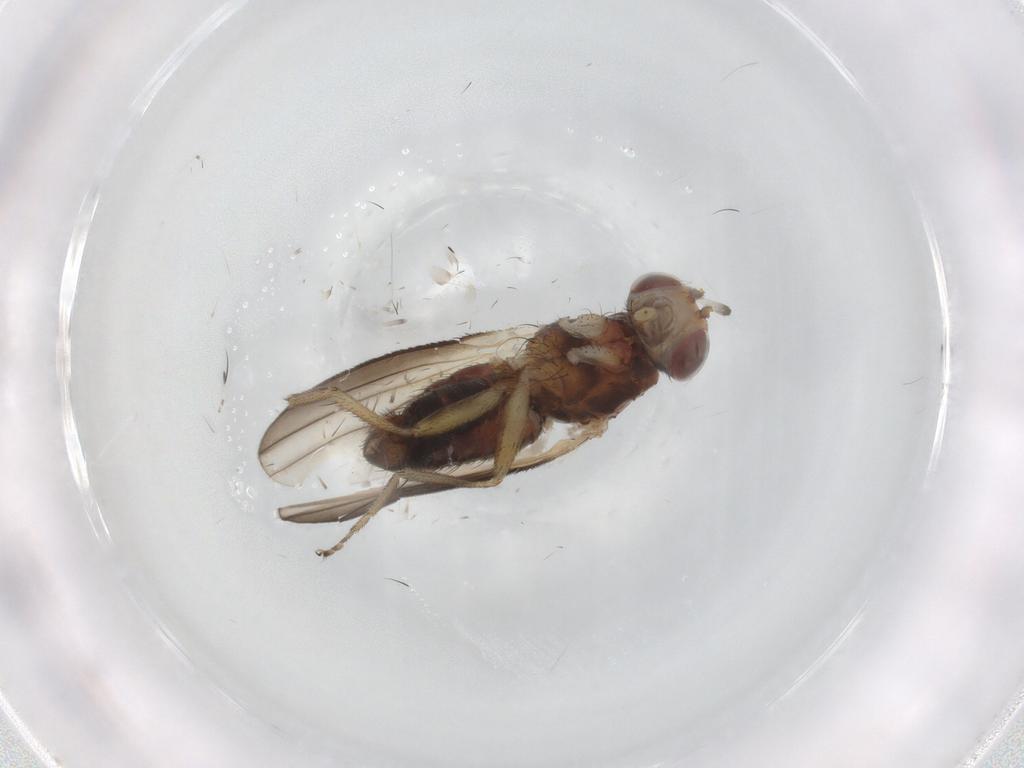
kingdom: Animalia
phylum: Arthropoda
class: Insecta
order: Diptera
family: Heleomyzidae
